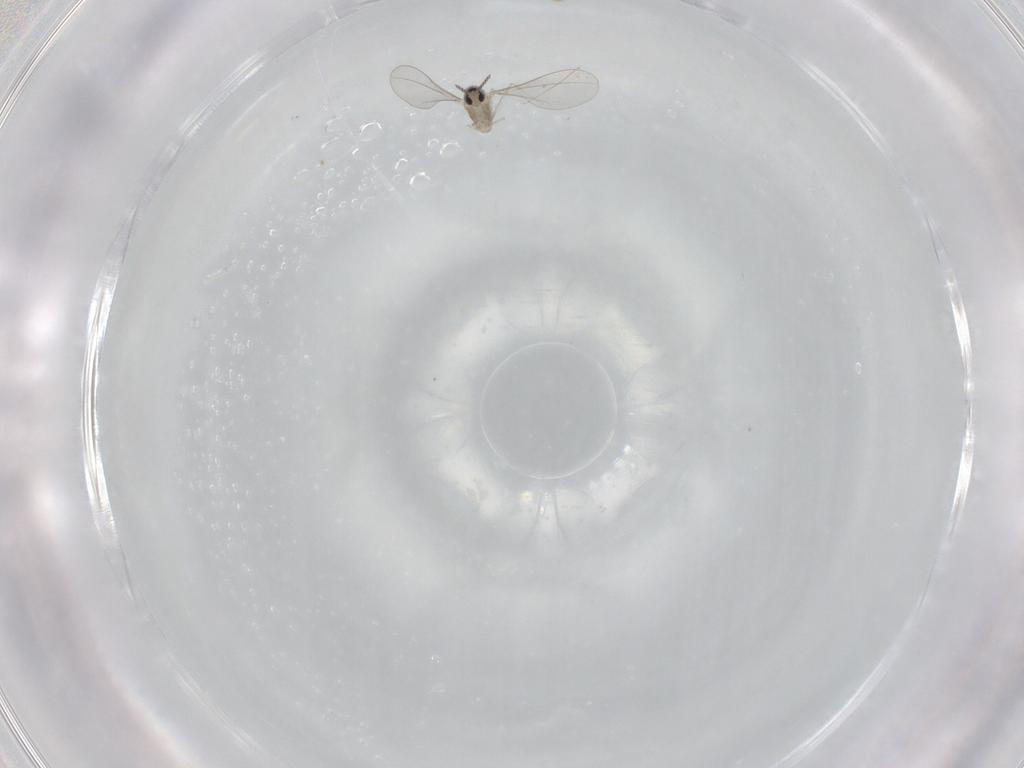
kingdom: Animalia
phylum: Arthropoda
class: Insecta
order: Diptera
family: Phoridae
